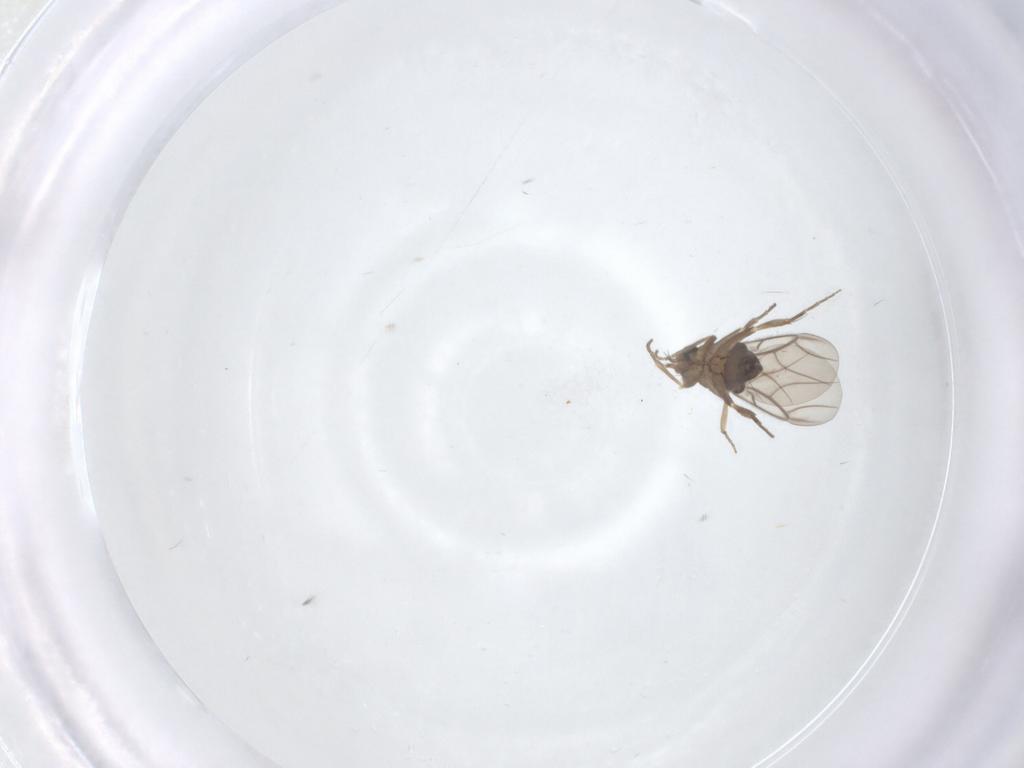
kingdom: Animalia
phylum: Arthropoda
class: Insecta
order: Diptera
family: Phoridae
